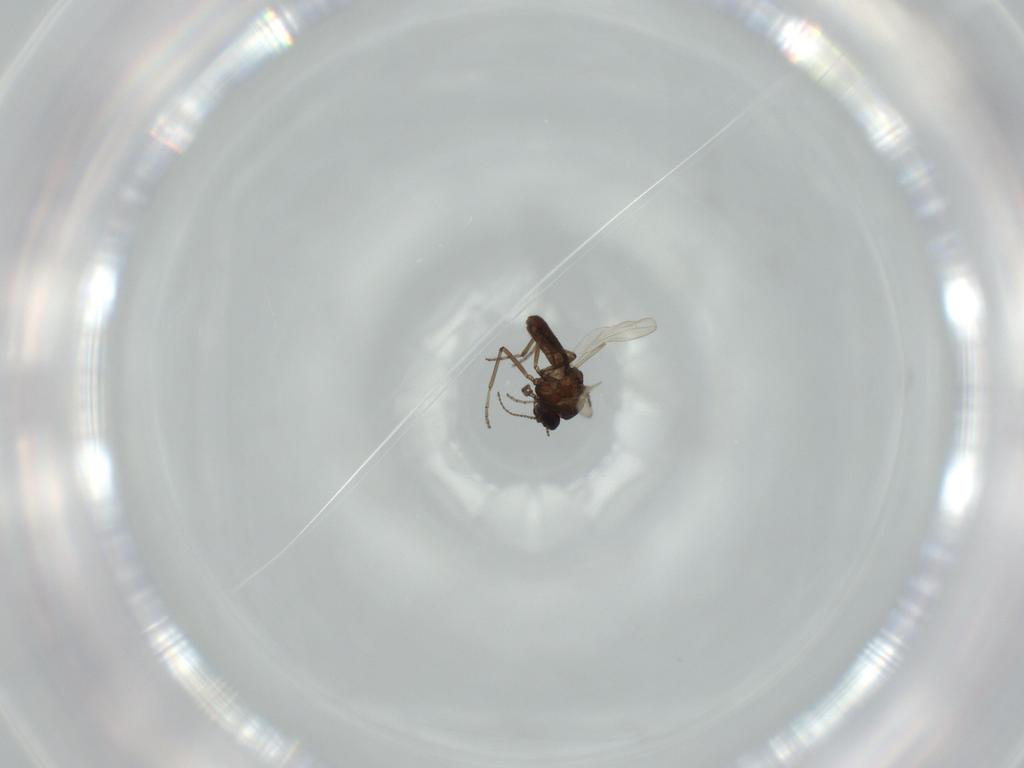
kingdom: Animalia
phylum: Arthropoda
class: Insecta
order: Diptera
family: Ceratopogonidae
